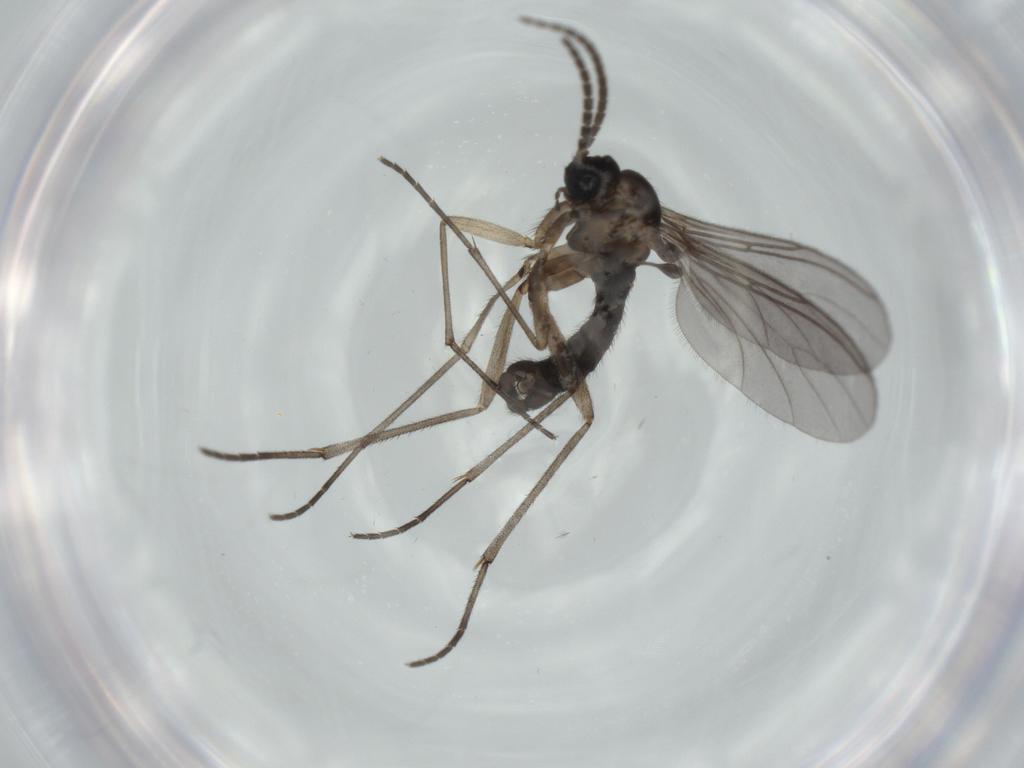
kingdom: Animalia
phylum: Arthropoda
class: Insecta
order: Diptera
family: Sciaridae
